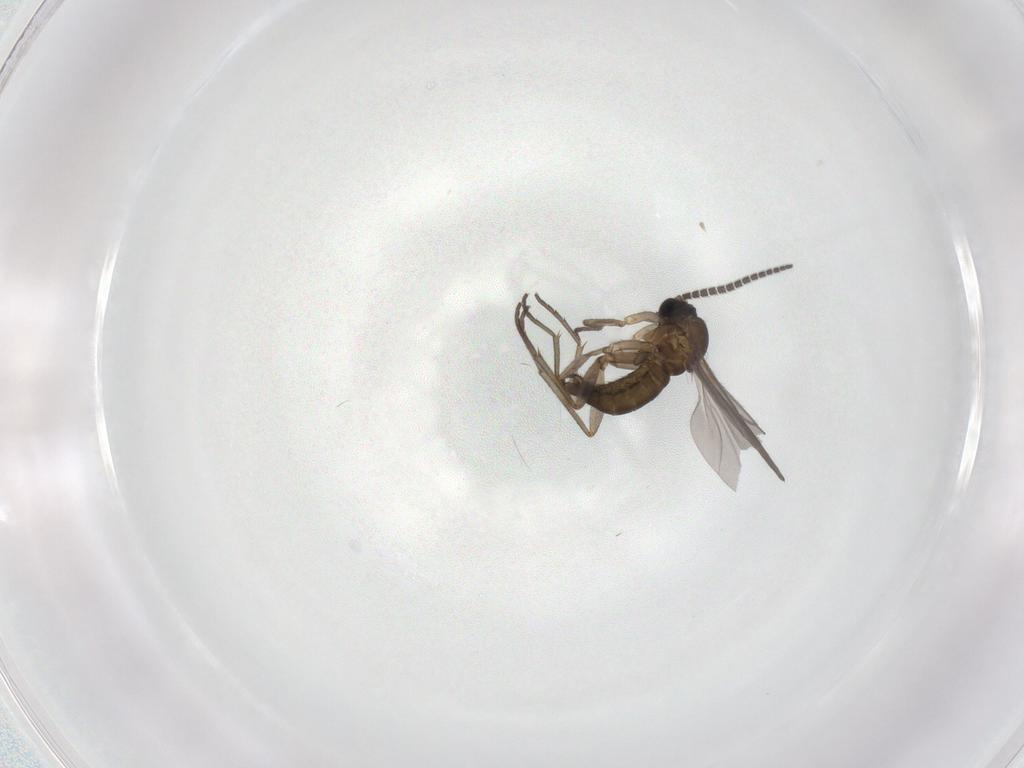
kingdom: Animalia
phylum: Arthropoda
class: Insecta
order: Diptera
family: Sciaridae
